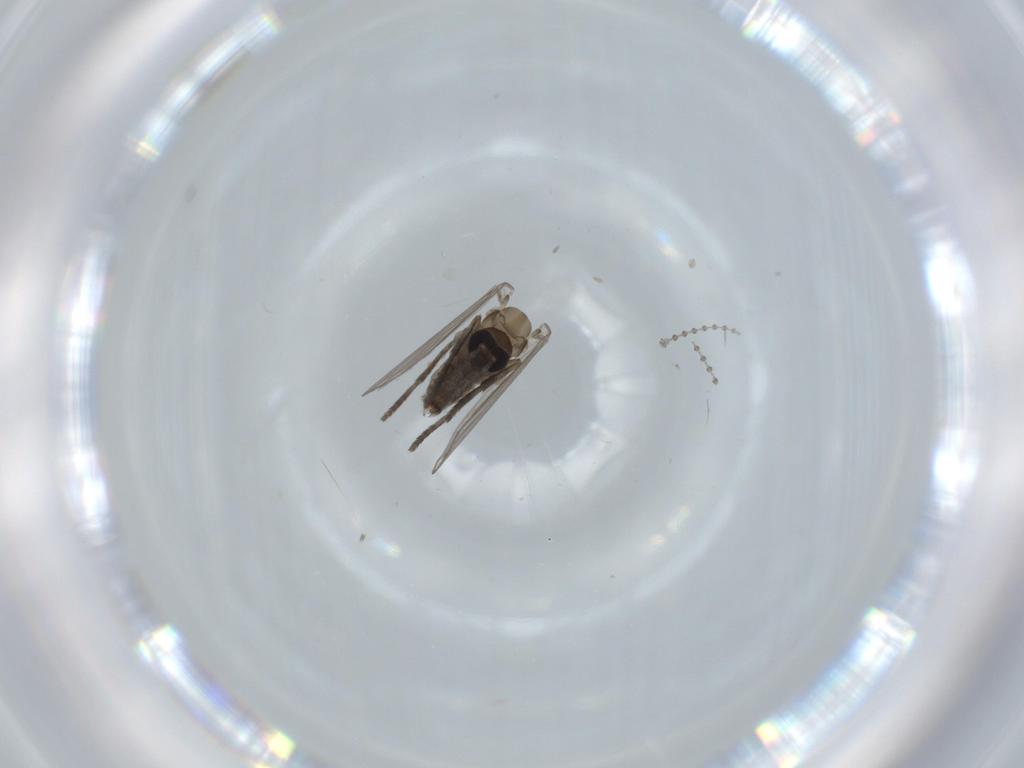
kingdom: Animalia
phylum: Arthropoda
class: Insecta
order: Diptera
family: Psychodidae
